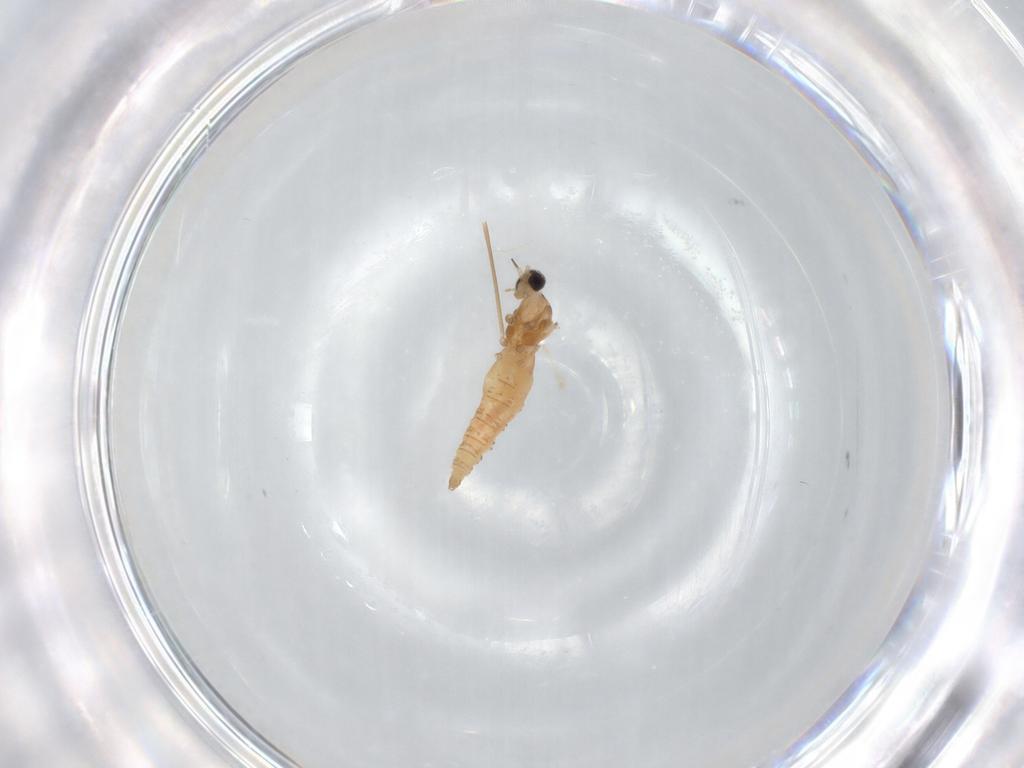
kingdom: Animalia
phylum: Arthropoda
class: Insecta
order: Diptera
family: Cecidomyiidae
